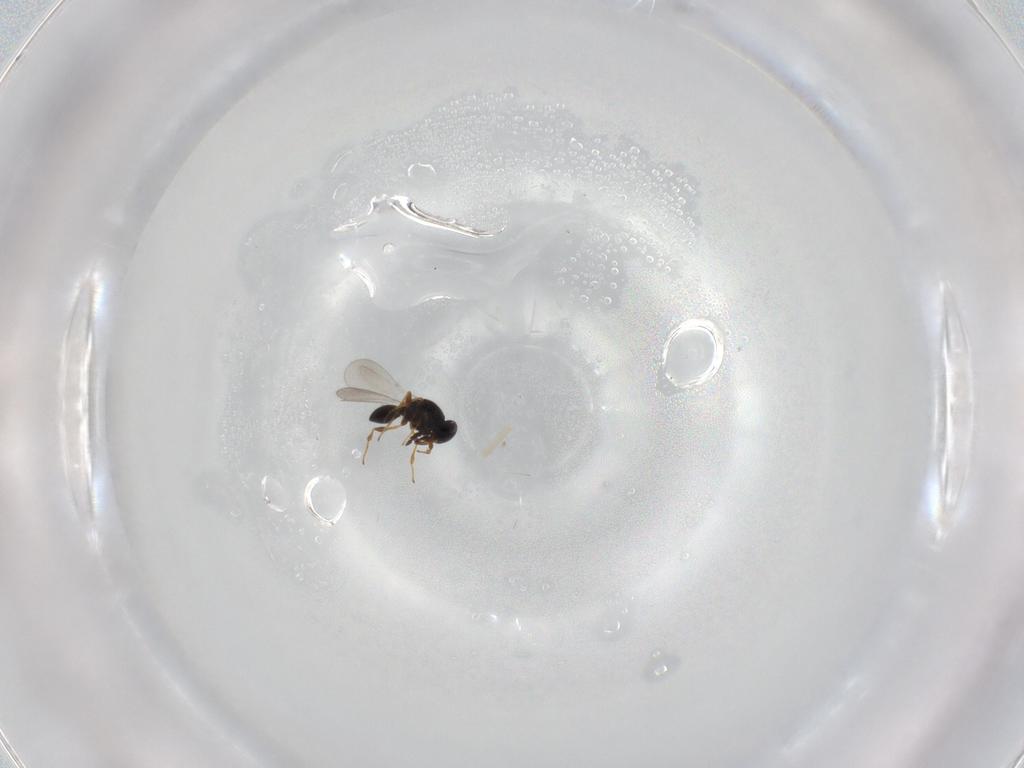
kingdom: Animalia
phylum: Arthropoda
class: Insecta
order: Hymenoptera
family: Platygastridae
